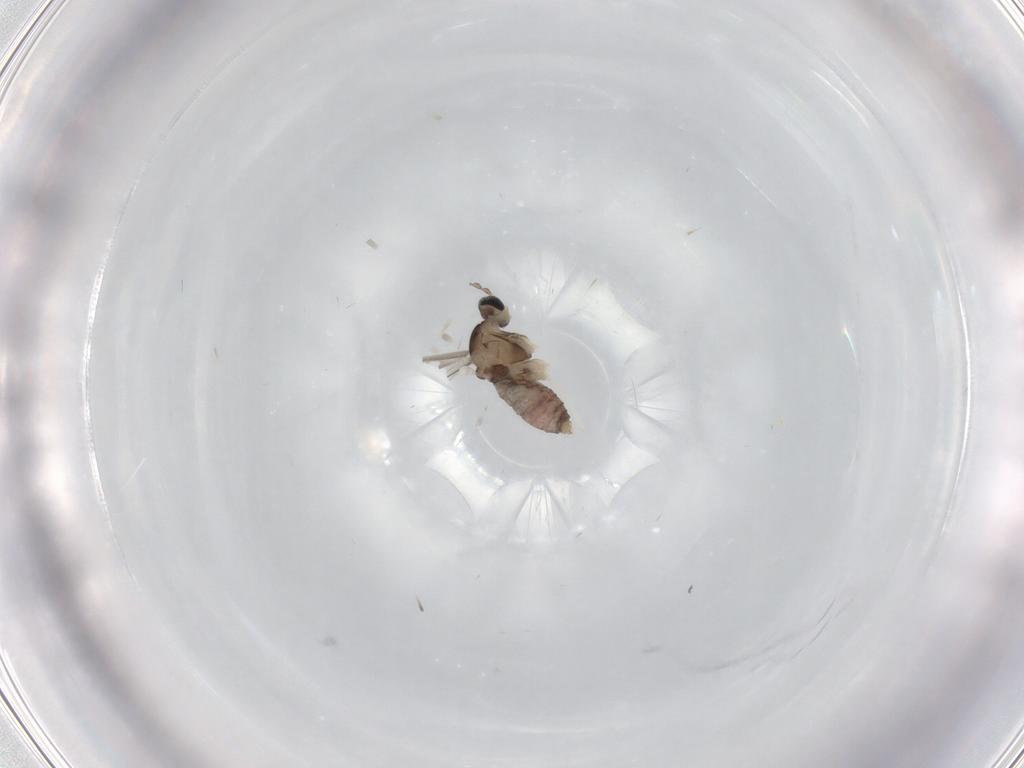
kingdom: Animalia
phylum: Arthropoda
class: Insecta
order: Diptera
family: Cecidomyiidae
